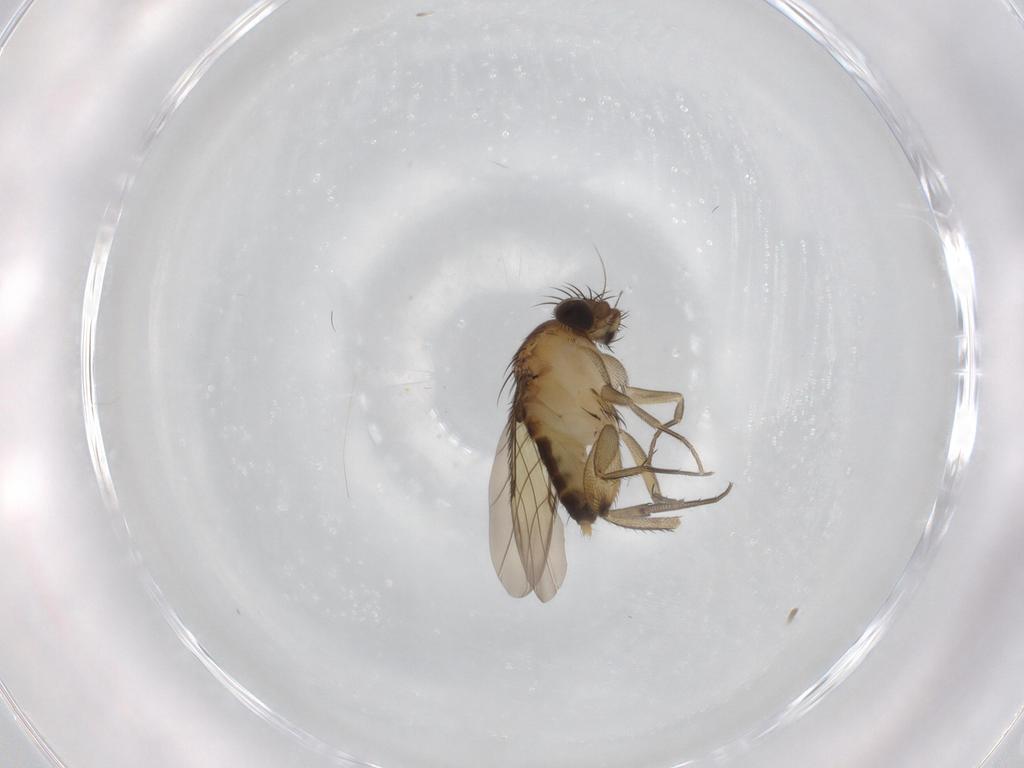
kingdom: Animalia
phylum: Arthropoda
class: Insecta
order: Diptera
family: Phoridae
